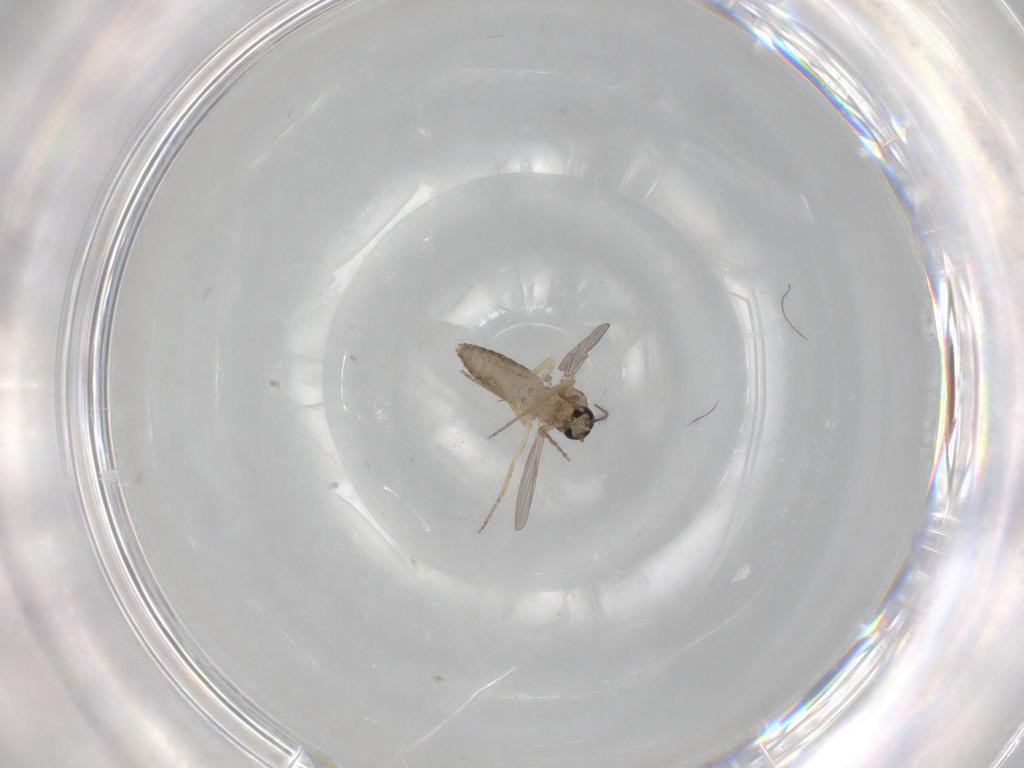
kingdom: Animalia
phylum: Arthropoda
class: Insecta
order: Diptera
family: Ceratopogonidae
